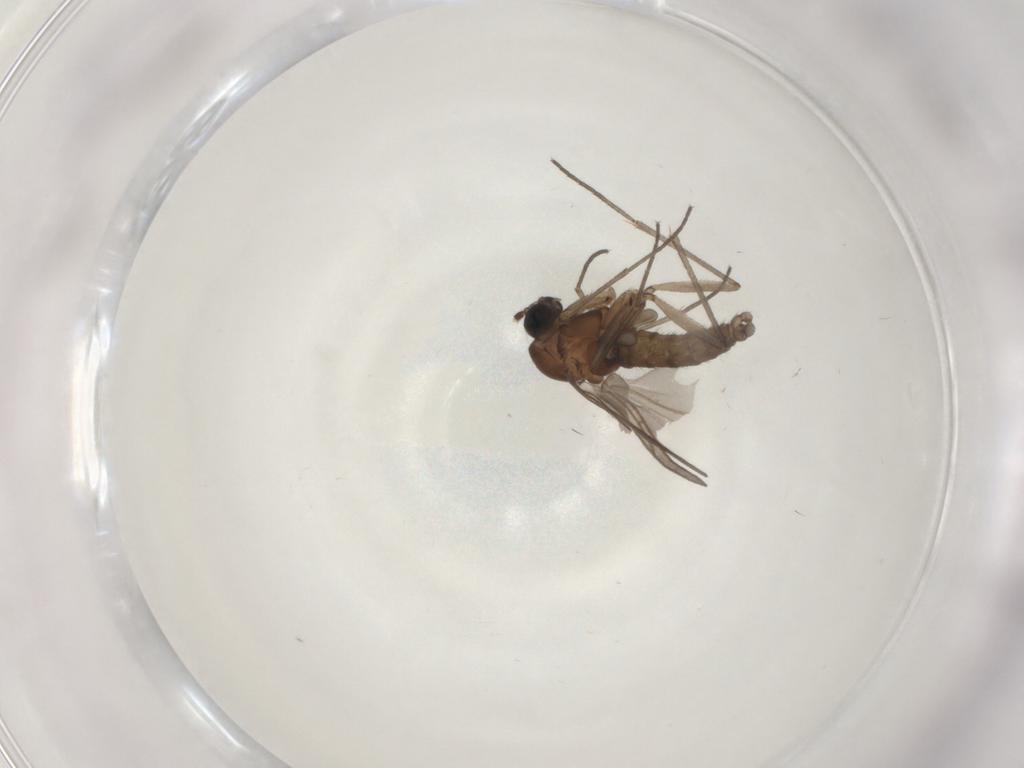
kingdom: Animalia
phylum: Arthropoda
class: Insecta
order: Diptera
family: Sciaridae
